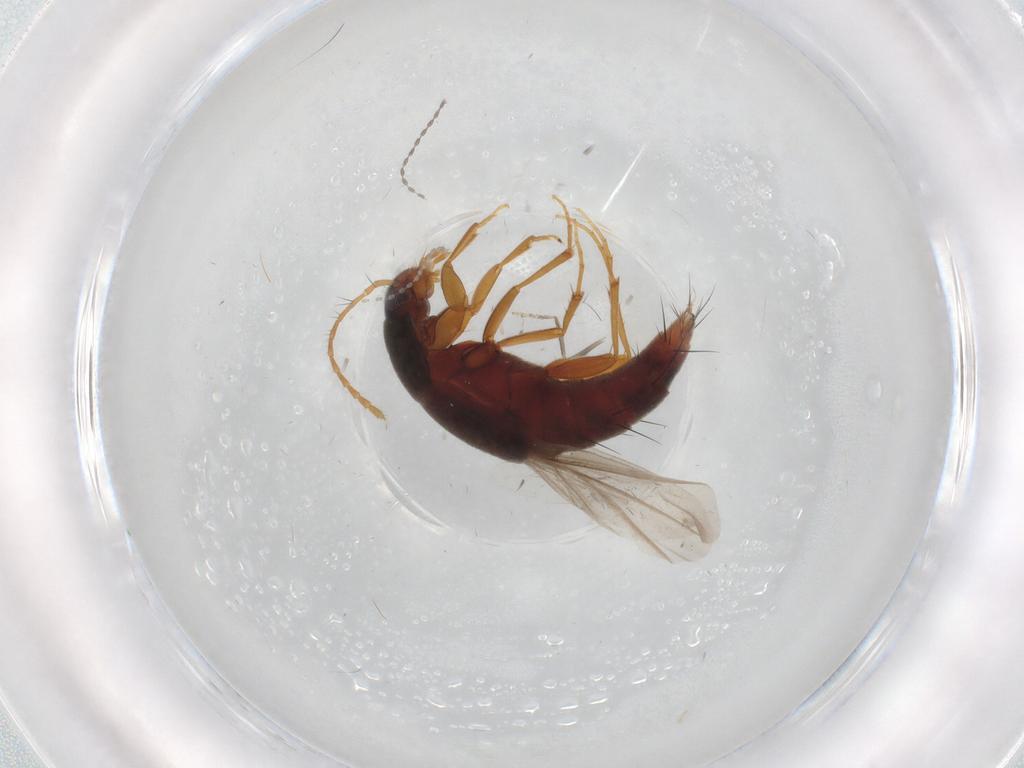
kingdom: Animalia
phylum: Arthropoda
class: Insecta
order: Coleoptera
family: Staphylinidae
